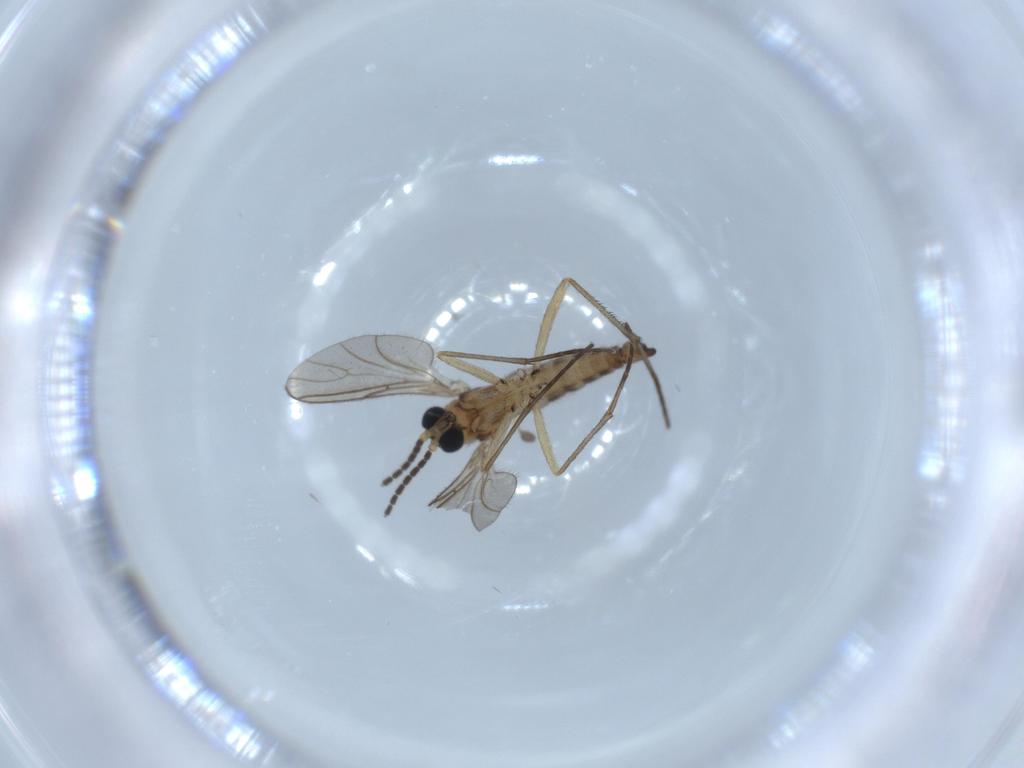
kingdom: Animalia
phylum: Arthropoda
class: Insecta
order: Diptera
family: Sciaridae
